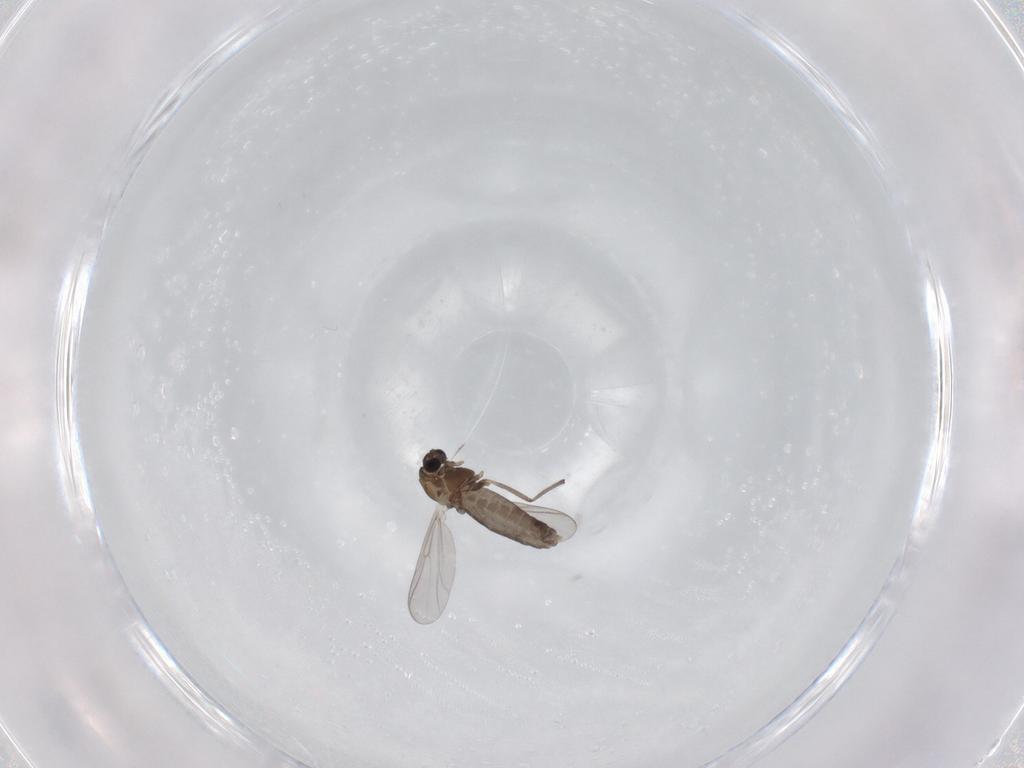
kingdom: Animalia
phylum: Arthropoda
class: Insecta
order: Diptera
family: Chironomidae
